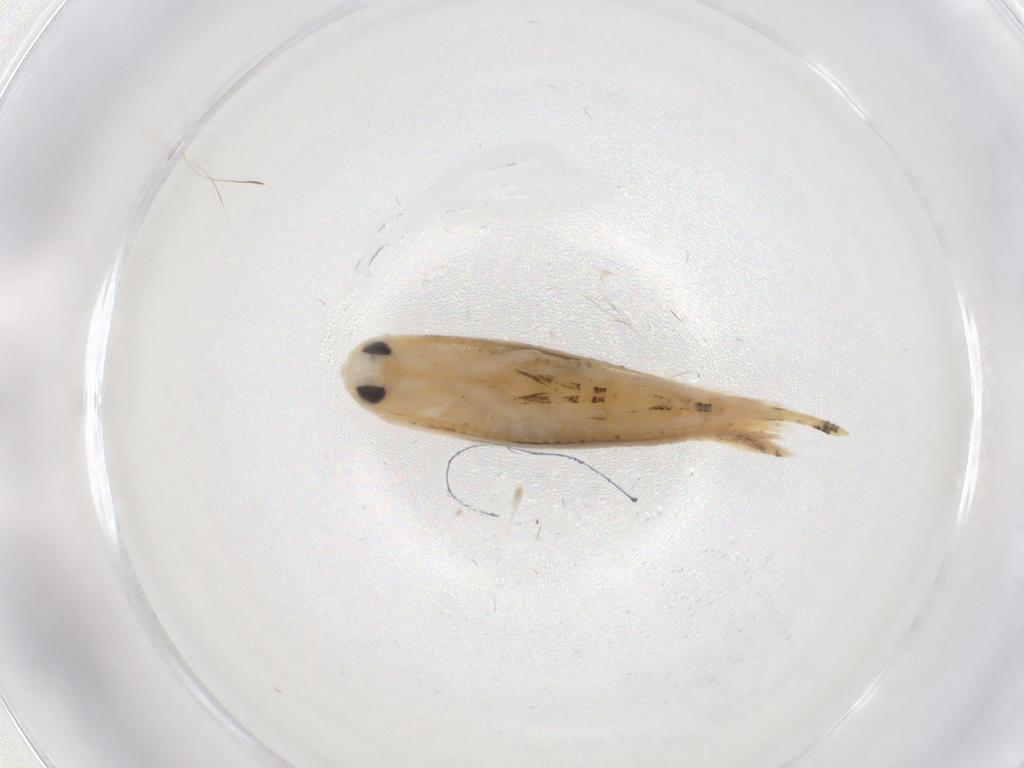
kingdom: Animalia
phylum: Arthropoda
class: Insecta
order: Lepidoptera
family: Bucculatricidae
